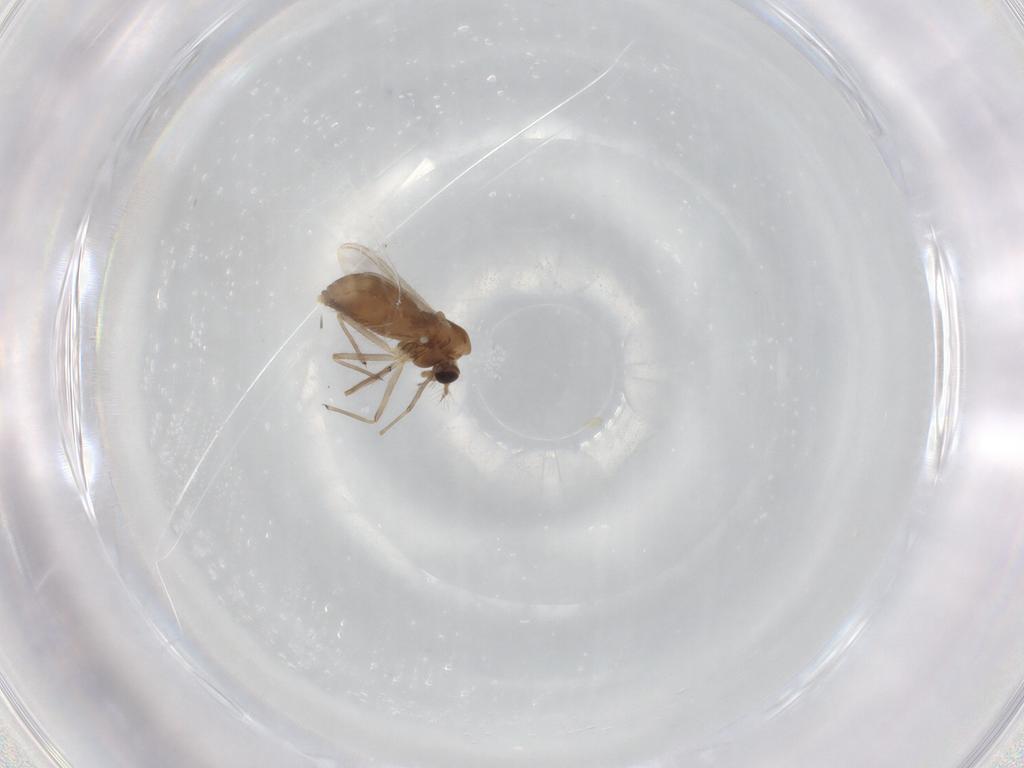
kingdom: Animalia
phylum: Arthropoda
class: Insecta
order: Diptera
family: Chironomidae
